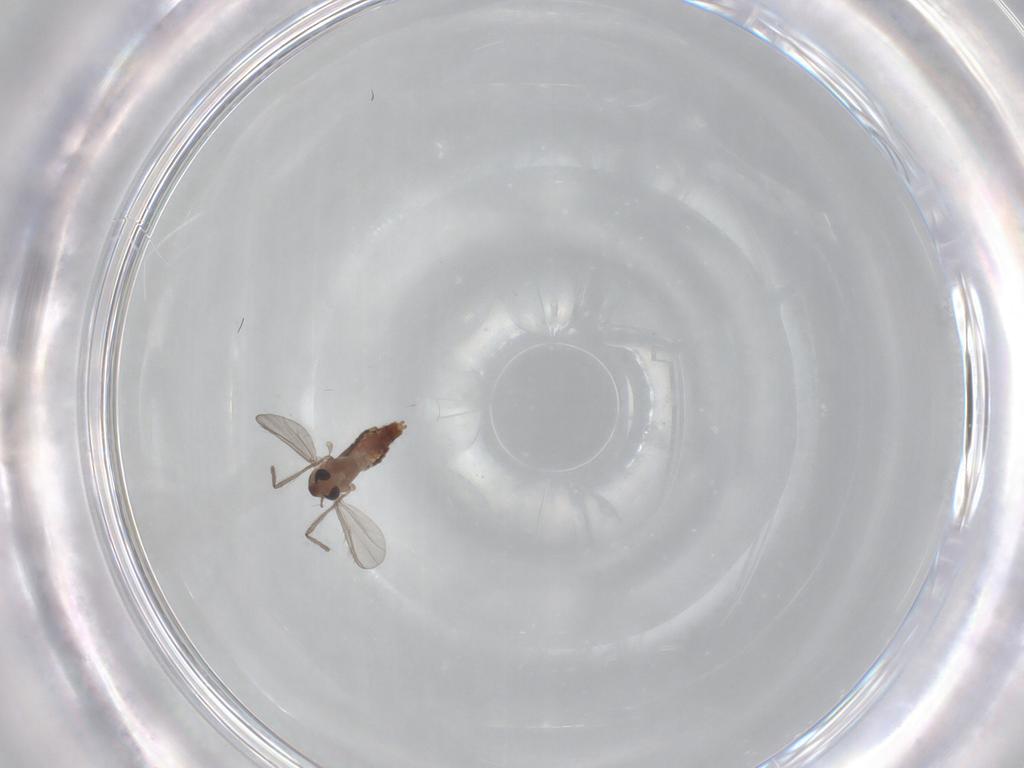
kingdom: Animalia
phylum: Arthropoda
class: Insecta
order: Diptera
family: Chironomidae
